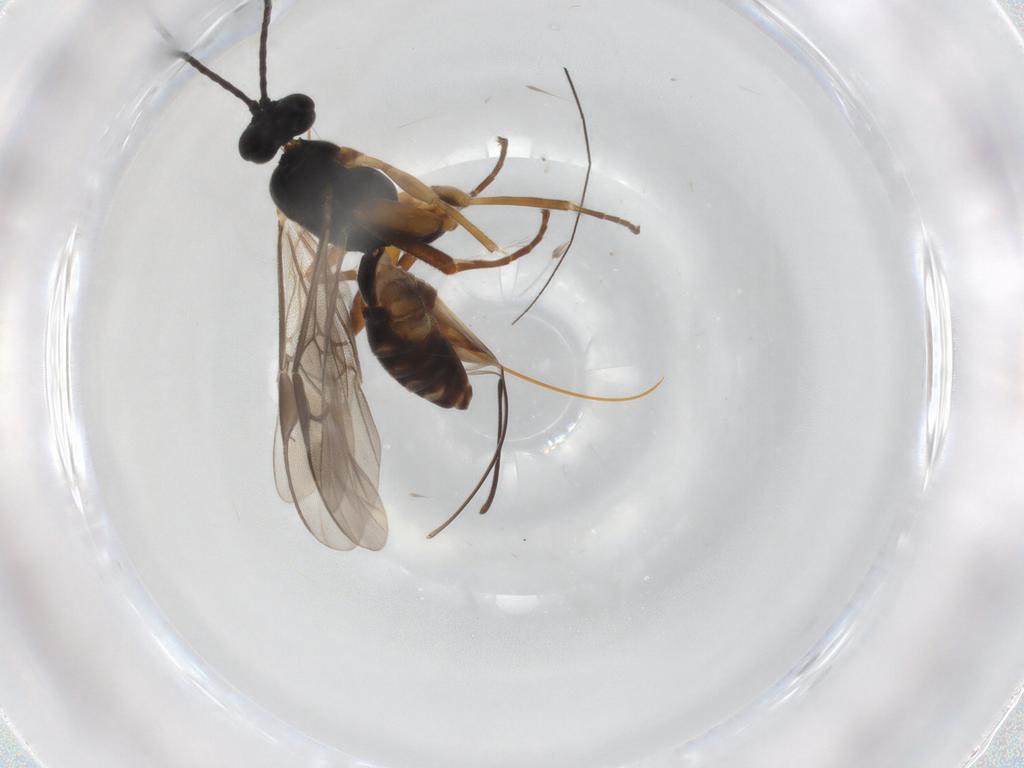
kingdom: Animalia
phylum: Arthropoda
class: Insecta
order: Hymenoptera
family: Braconidae
